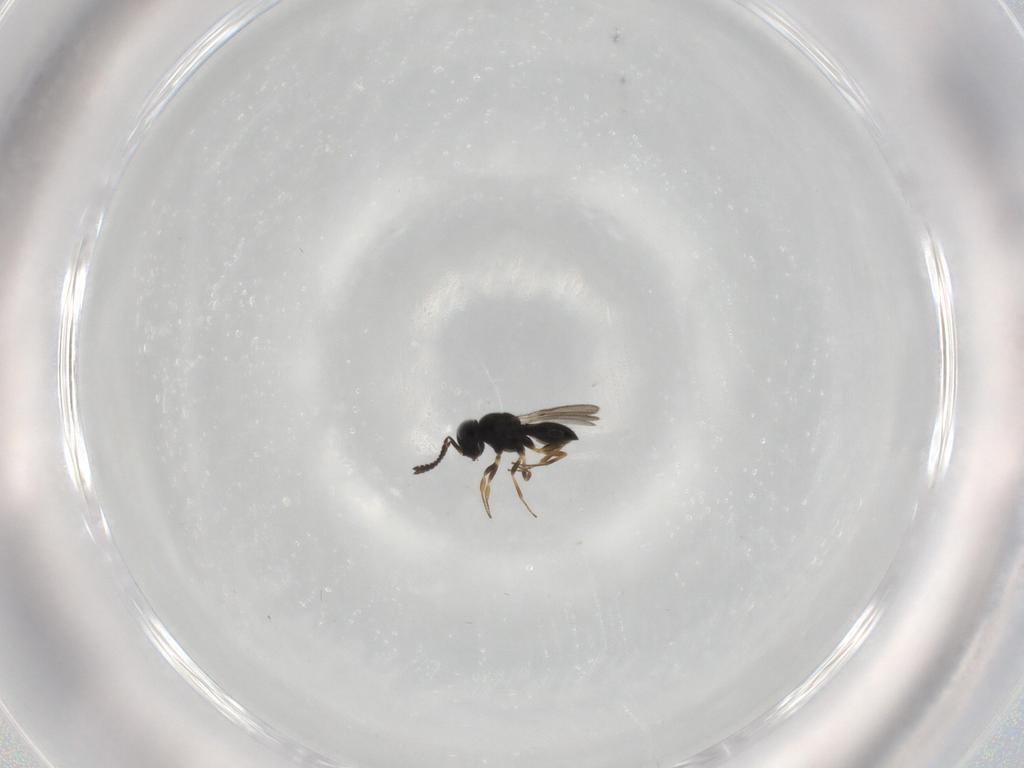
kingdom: Animalia
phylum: Arthropoda
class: Insecta
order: Hymenoptera
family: Scelionidae
